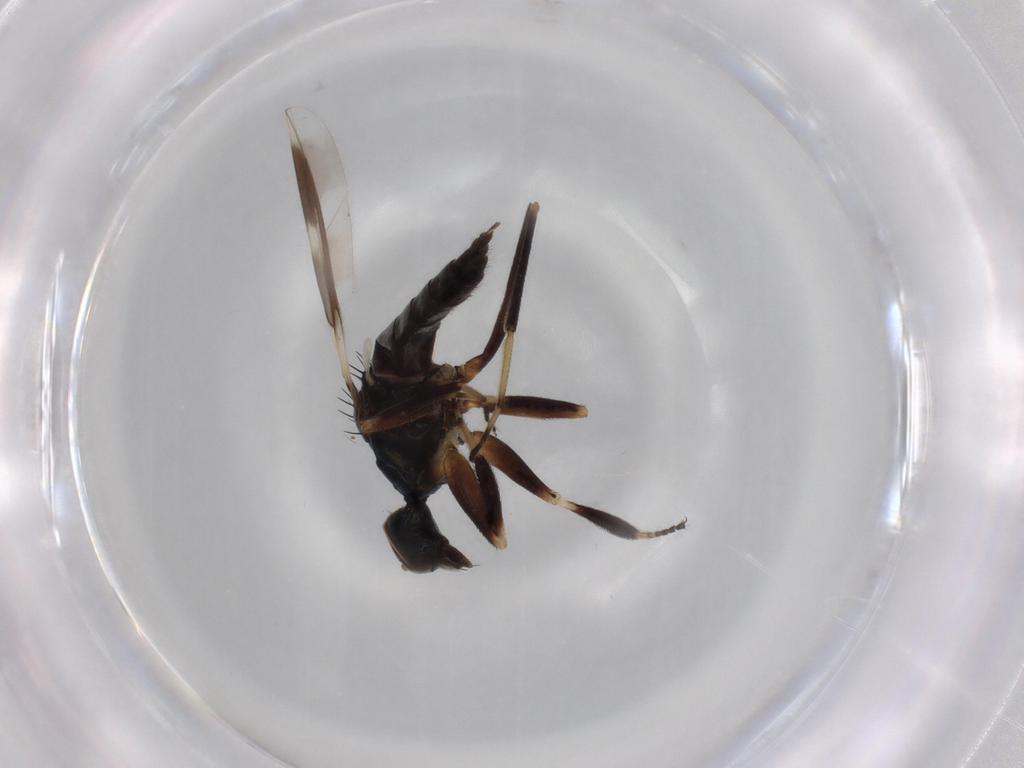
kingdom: Animalia
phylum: Arthropoda
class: Insecta
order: Diptera
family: Hybotidae
